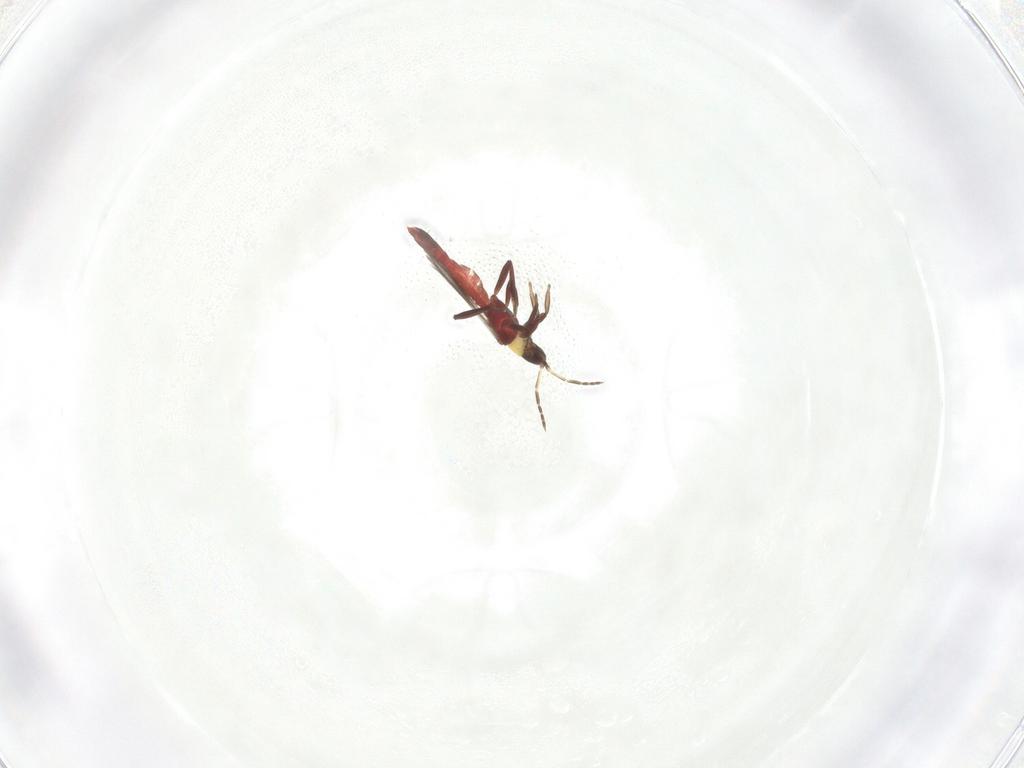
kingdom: Animalia
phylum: Arthropoda
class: Insecta
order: Thysanoptera
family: Aeolothripidae
